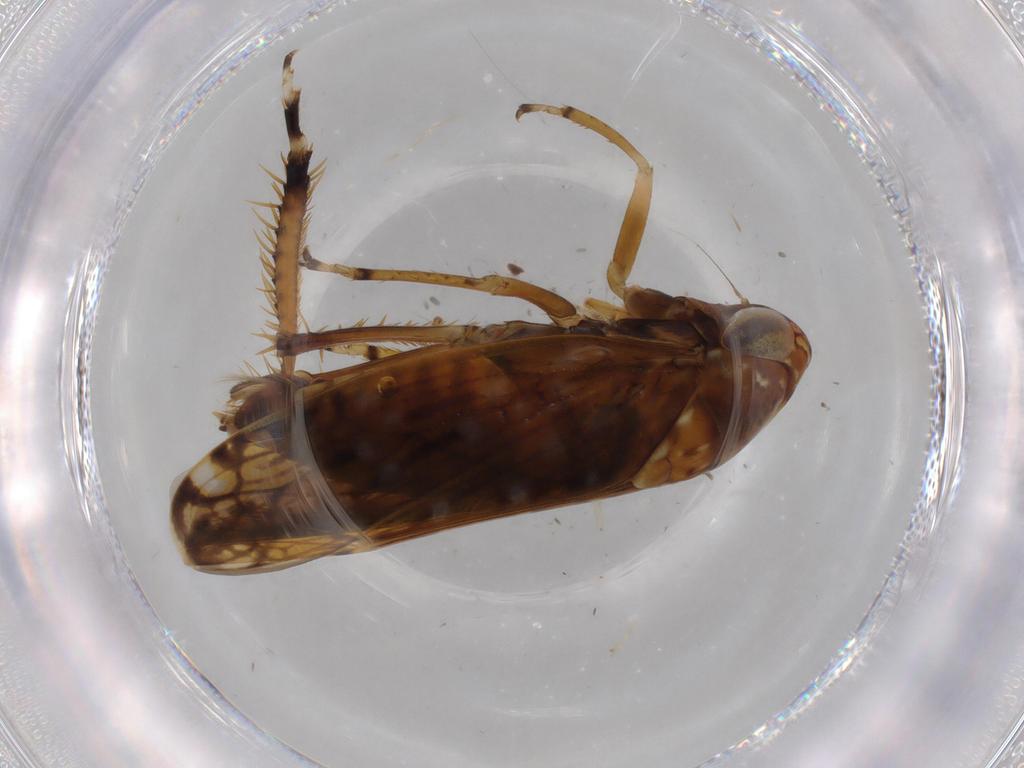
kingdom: Animalia
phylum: Arthropoda
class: Insecta
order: Hemiptera
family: Cicadellidae
